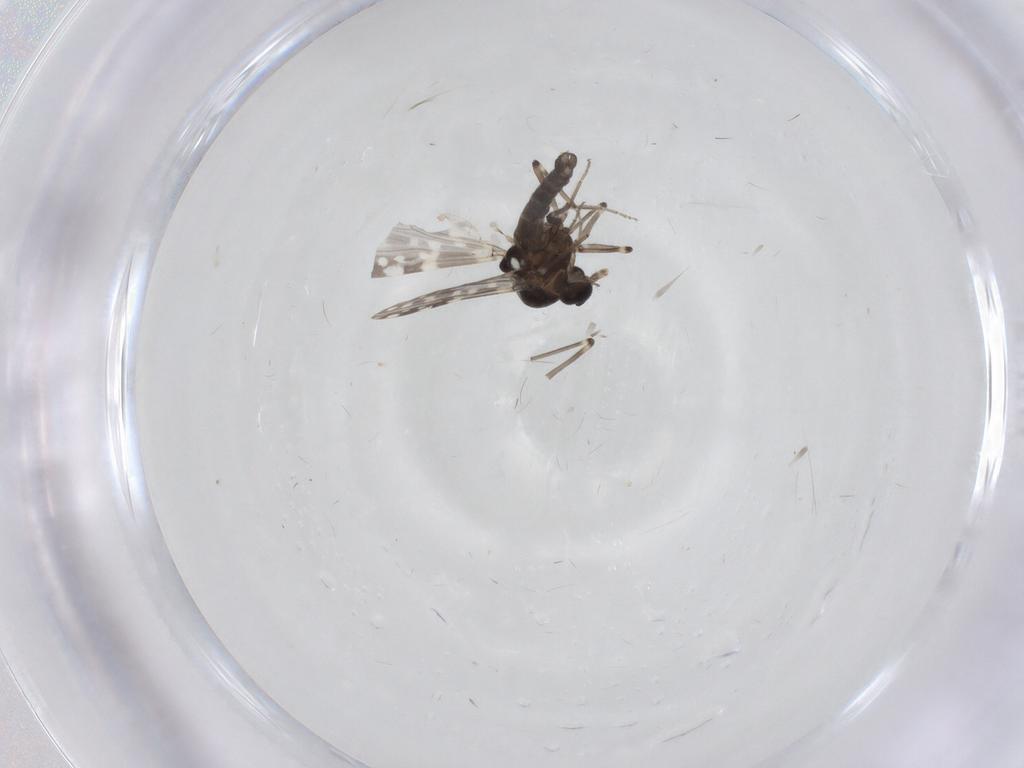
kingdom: Animalia
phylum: Arthropoda
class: Insecta
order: Diptera
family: Ceratopogonidae
